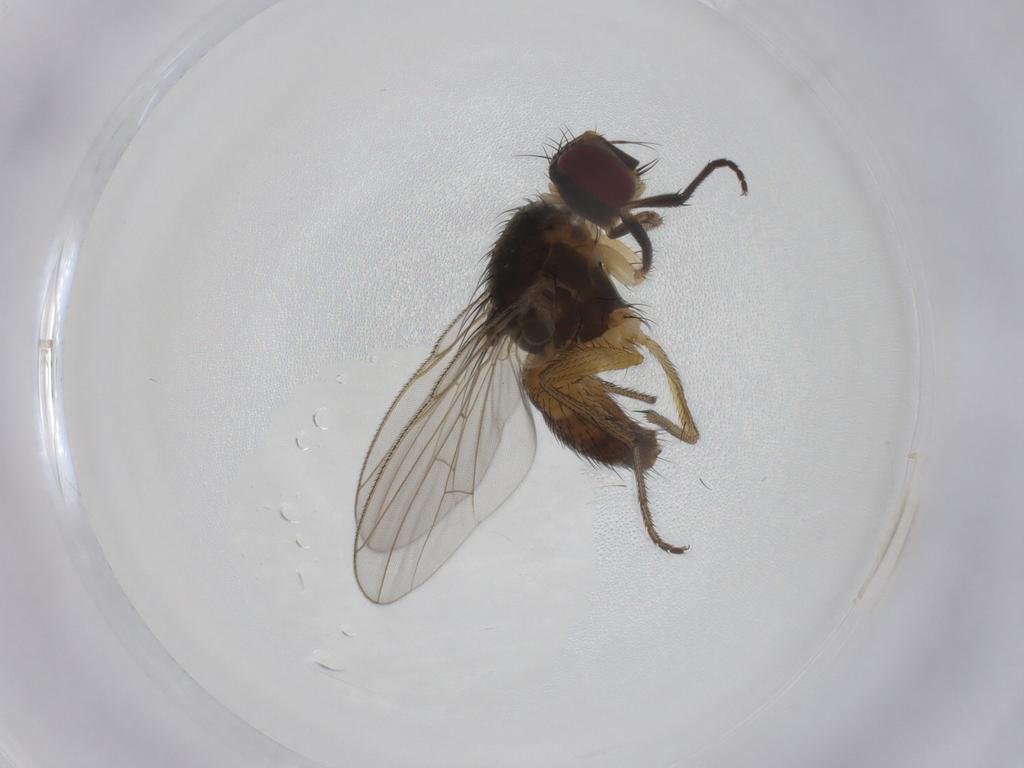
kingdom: Animalia
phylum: Arthropoda
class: Insecta
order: Diptera
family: Muscidae
